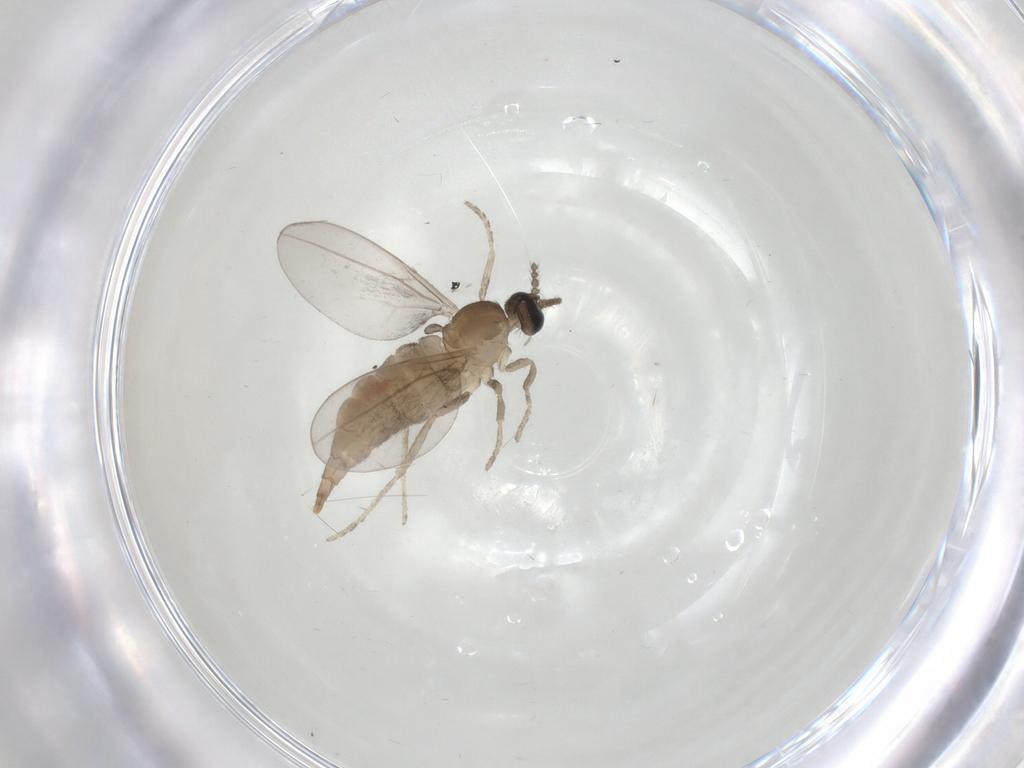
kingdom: Animalia
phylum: Arthropoda
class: Insecta
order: Diptera
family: Cecidomyiidae
